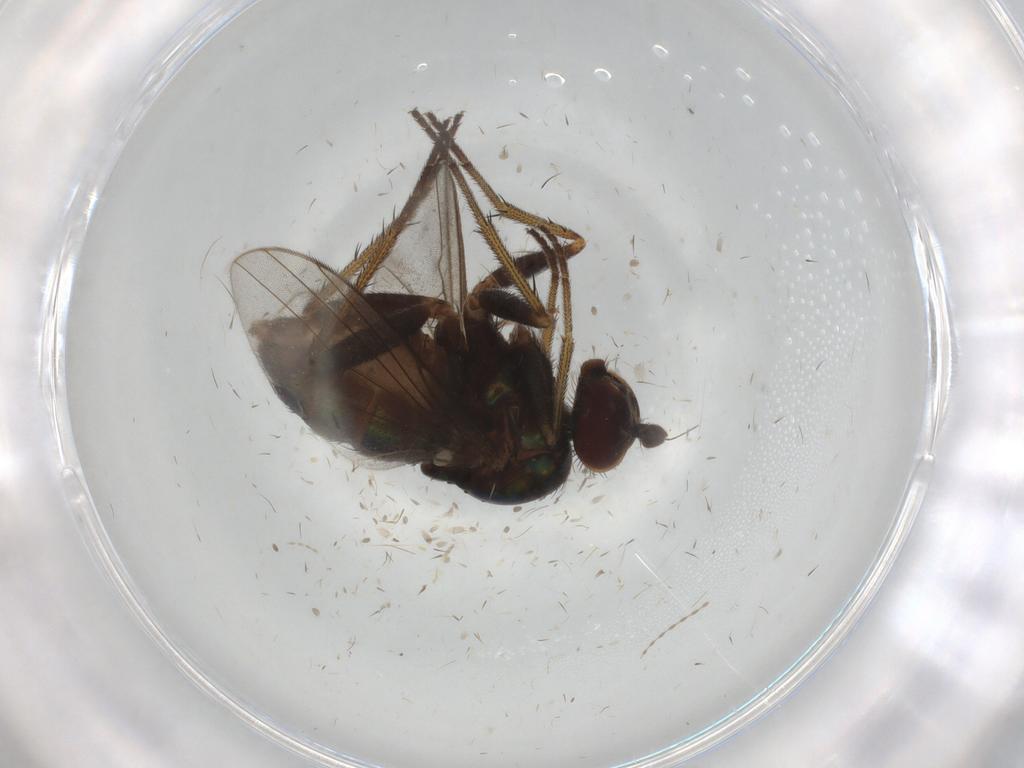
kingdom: Animalia
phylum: Arthropoda
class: Insecta
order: Diptera
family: Dolichopodidae
